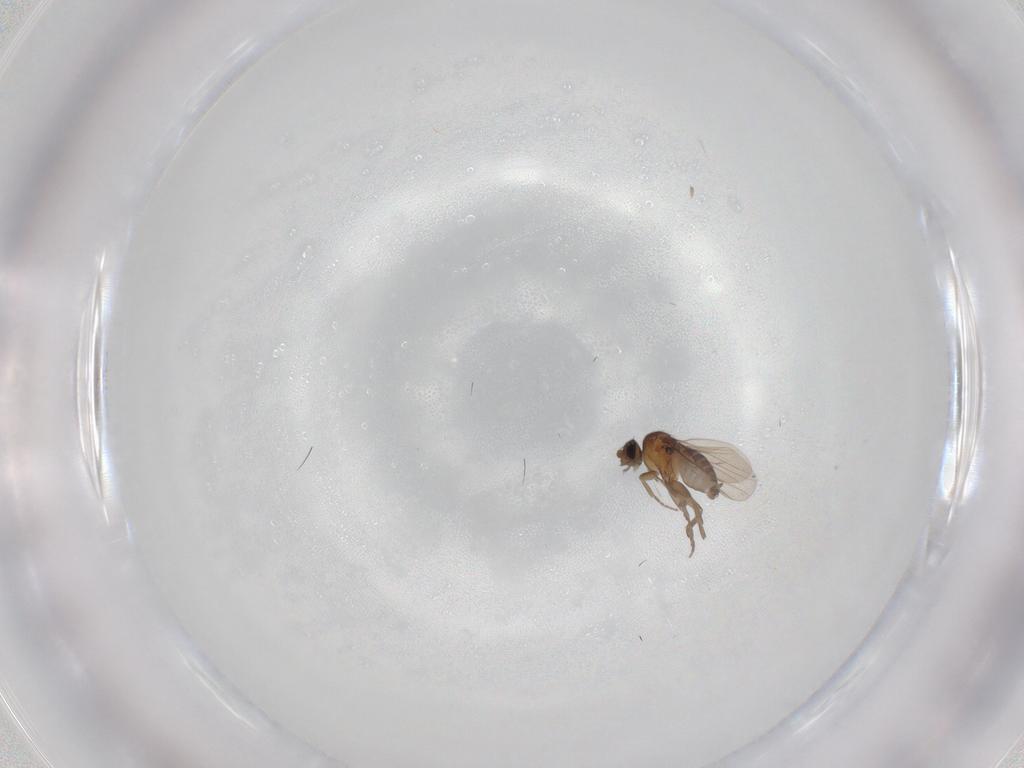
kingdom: Animalia
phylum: Arthropoda
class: Insecta
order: Diptera
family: Phoridae
